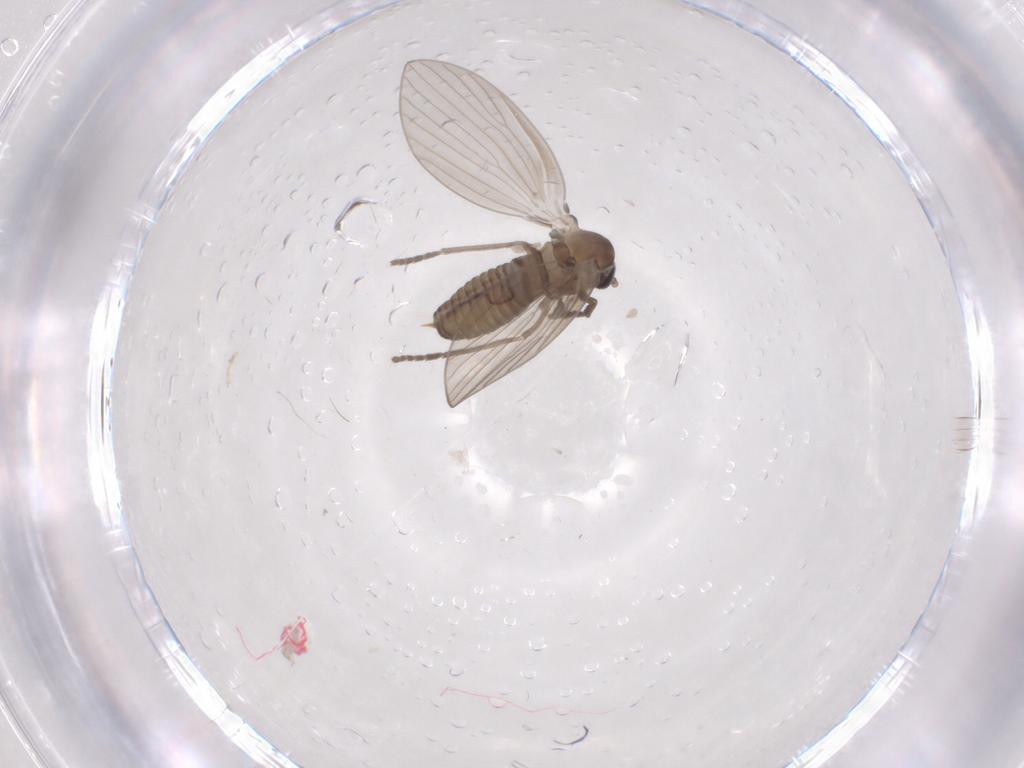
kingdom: Animalia
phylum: Arthropoda
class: Insecta
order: Diptera
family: Psychodidae
